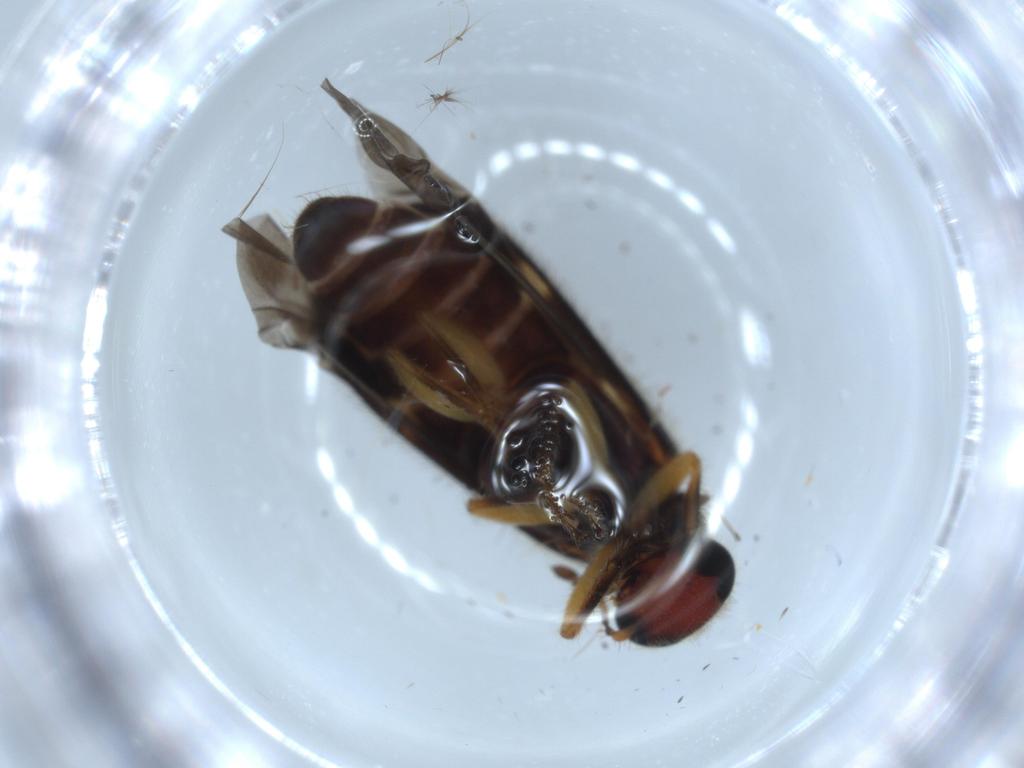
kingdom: Animalia
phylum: Arthropoda
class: Insecta
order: Coleoptera
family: Cleridae
